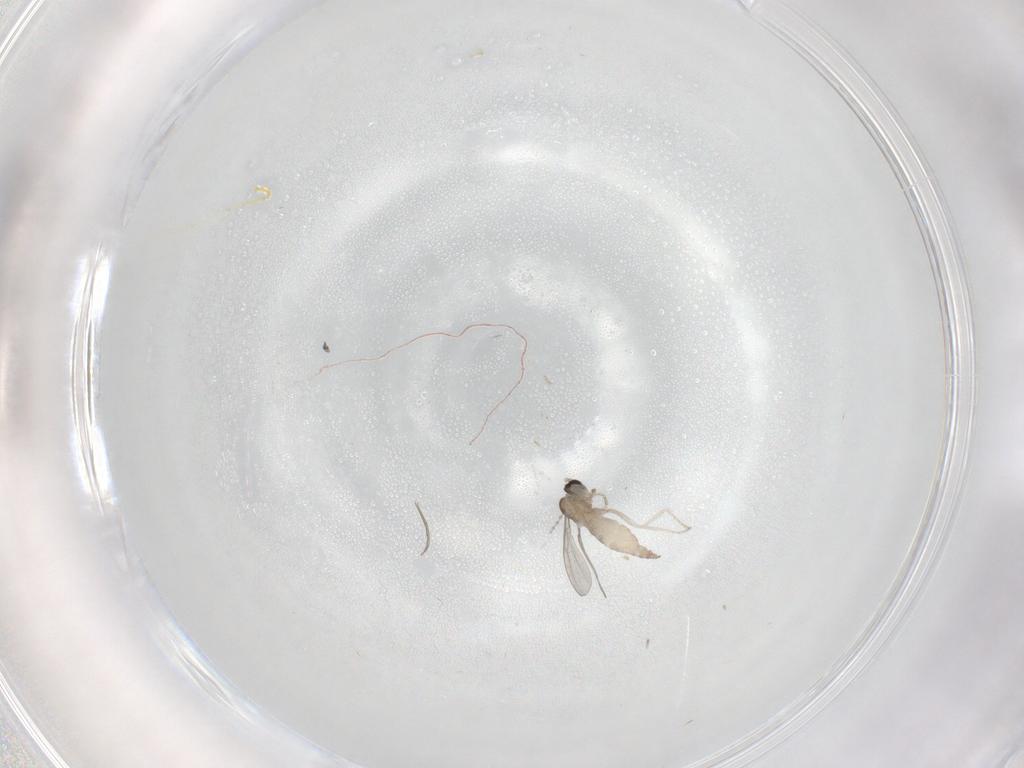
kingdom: Animalia
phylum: Arthropoda
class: Insecta
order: Diptera
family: Cecidomyiidae
